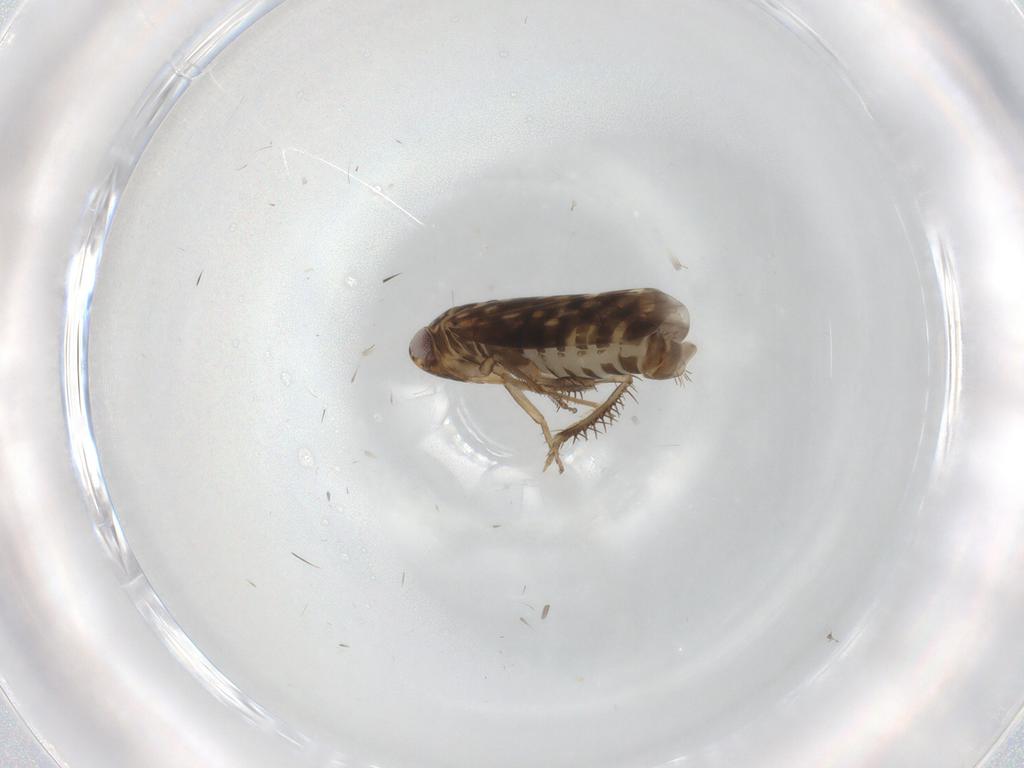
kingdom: Animalia
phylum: Arthropoda
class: Insecta
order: Hemiptera
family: Cicadellidae
